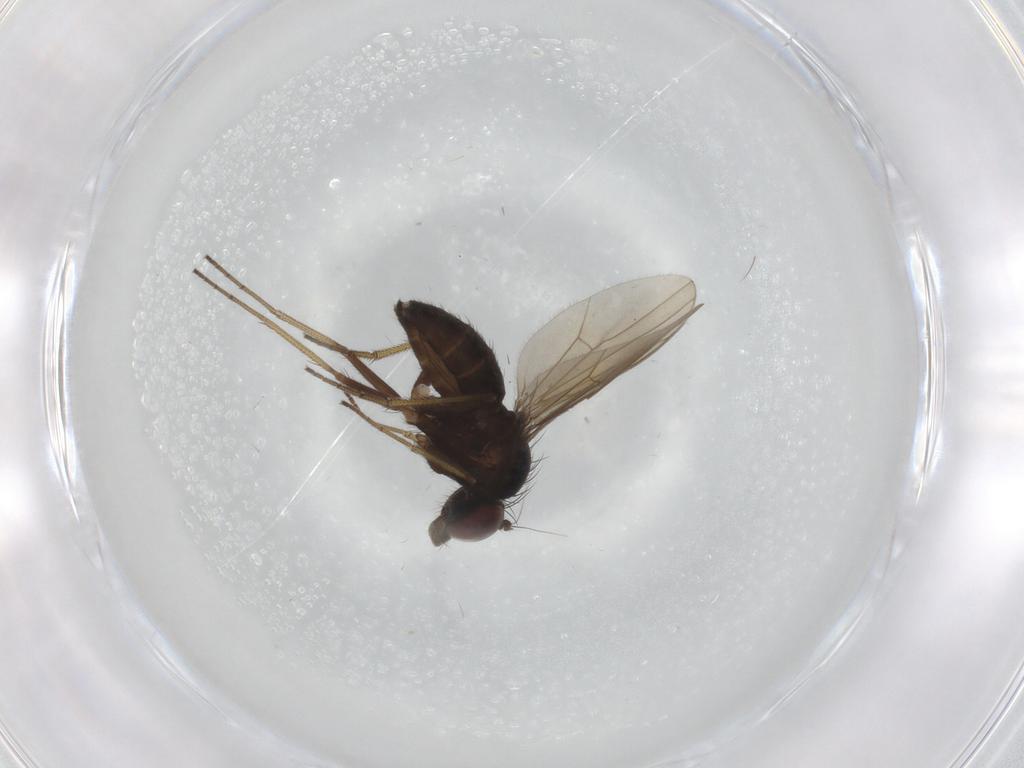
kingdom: Animalia
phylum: Arthropoda
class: Insecta
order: Diptera
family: Dolichopodidae
